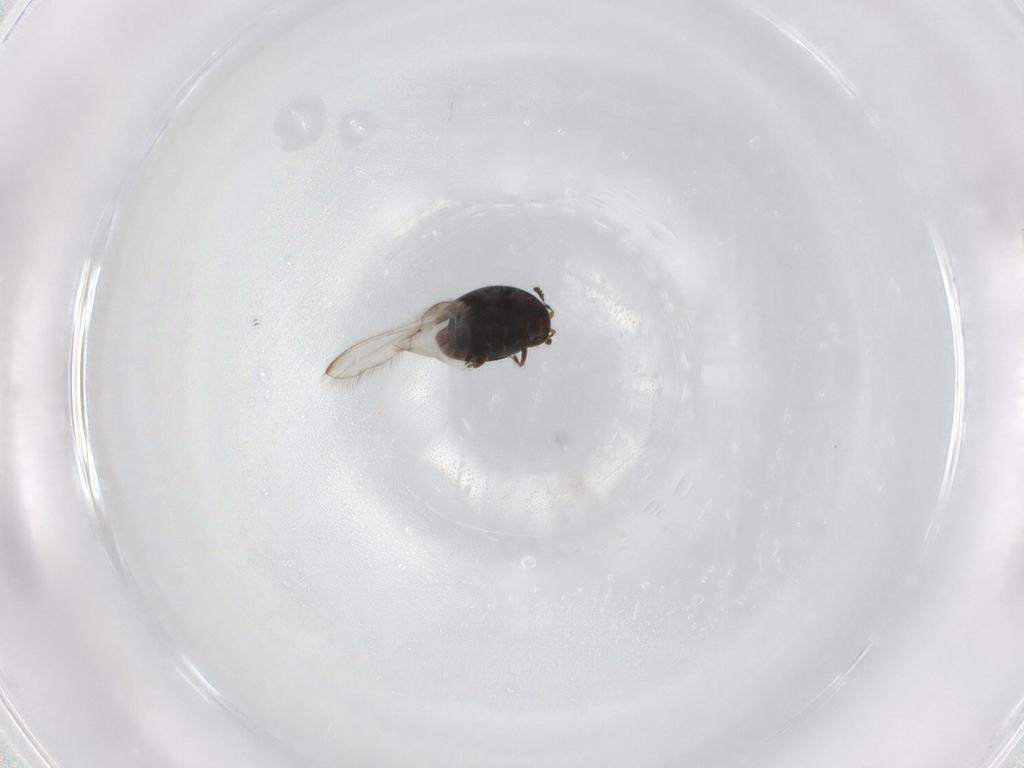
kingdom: Animalia
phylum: Arthropoda
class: Insecta
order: Coleoptera
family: Corylophidae
